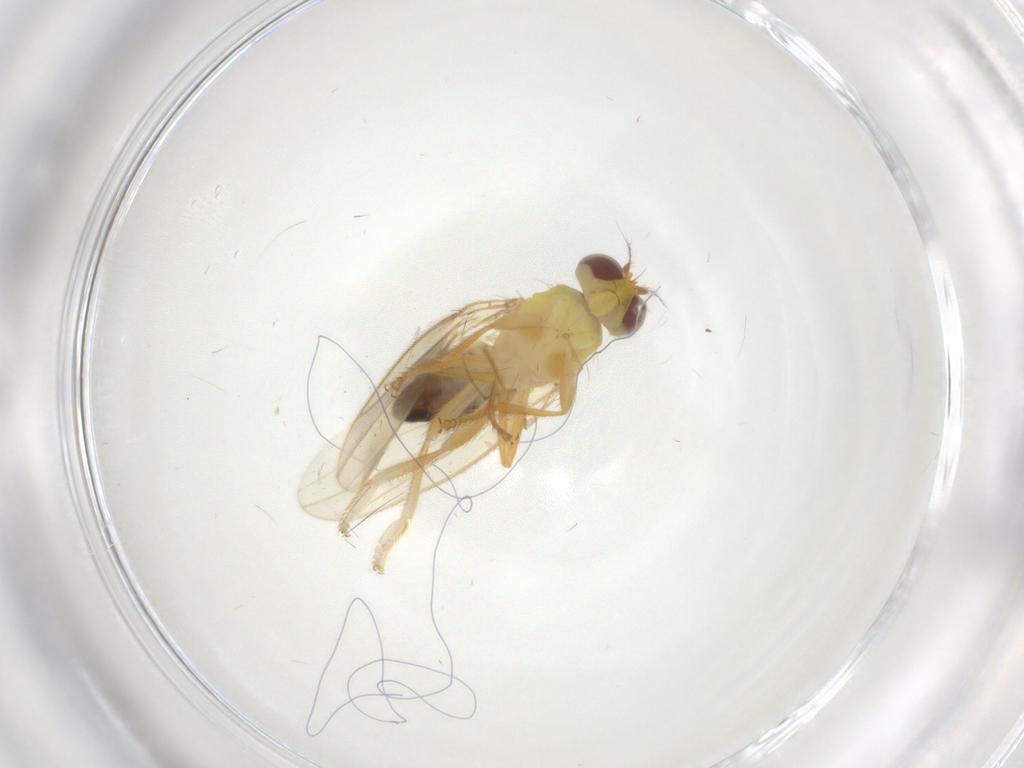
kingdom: Animalia
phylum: Arthropoda
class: Insecta
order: Diptera
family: Periscelididae
